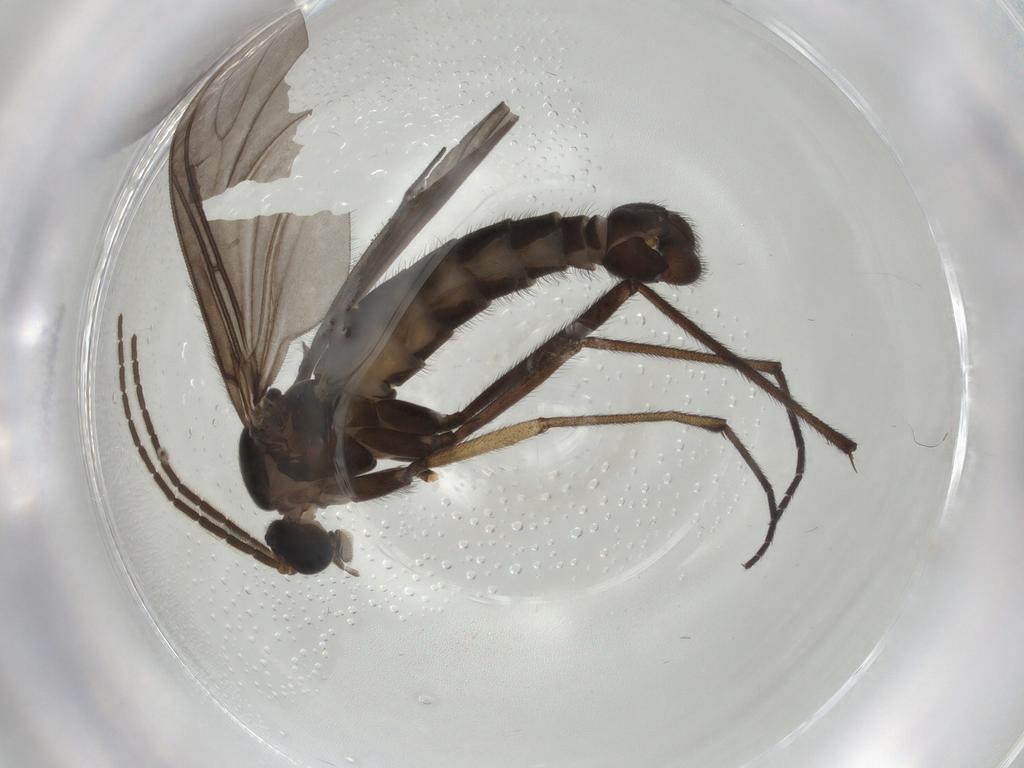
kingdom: Animalia
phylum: Arthropoda
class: Insecta
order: Diptera
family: Sciaridae
